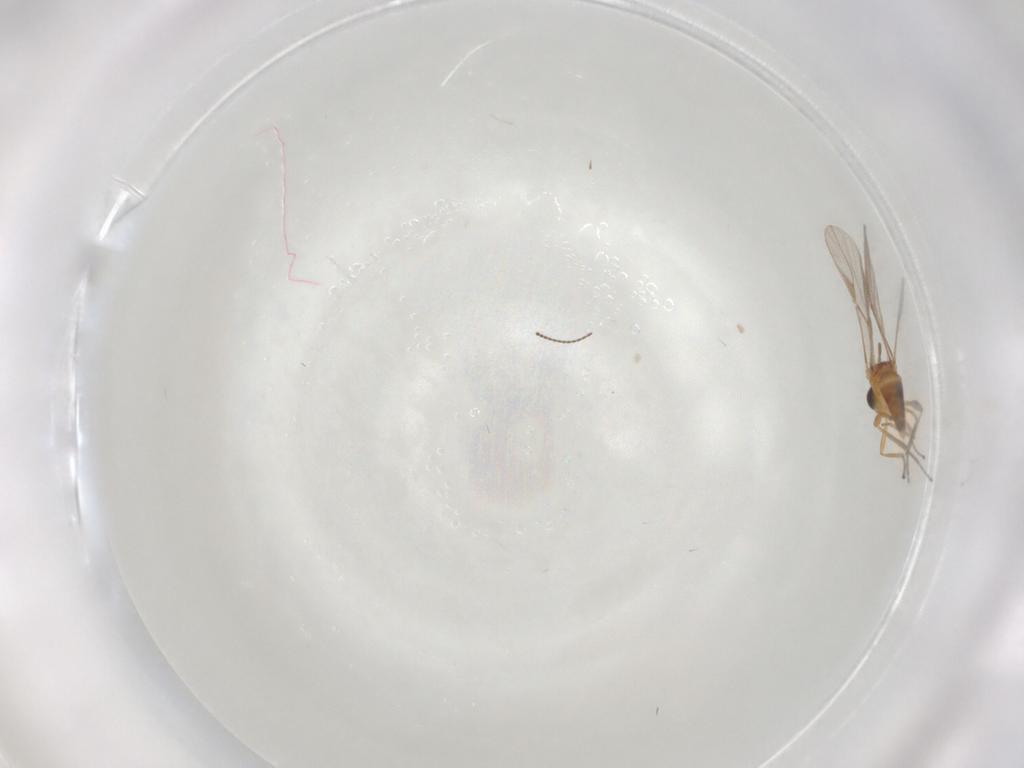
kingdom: Animalia
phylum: Arthropoda
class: Insecta
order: Hymenoptera
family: Braconidae
